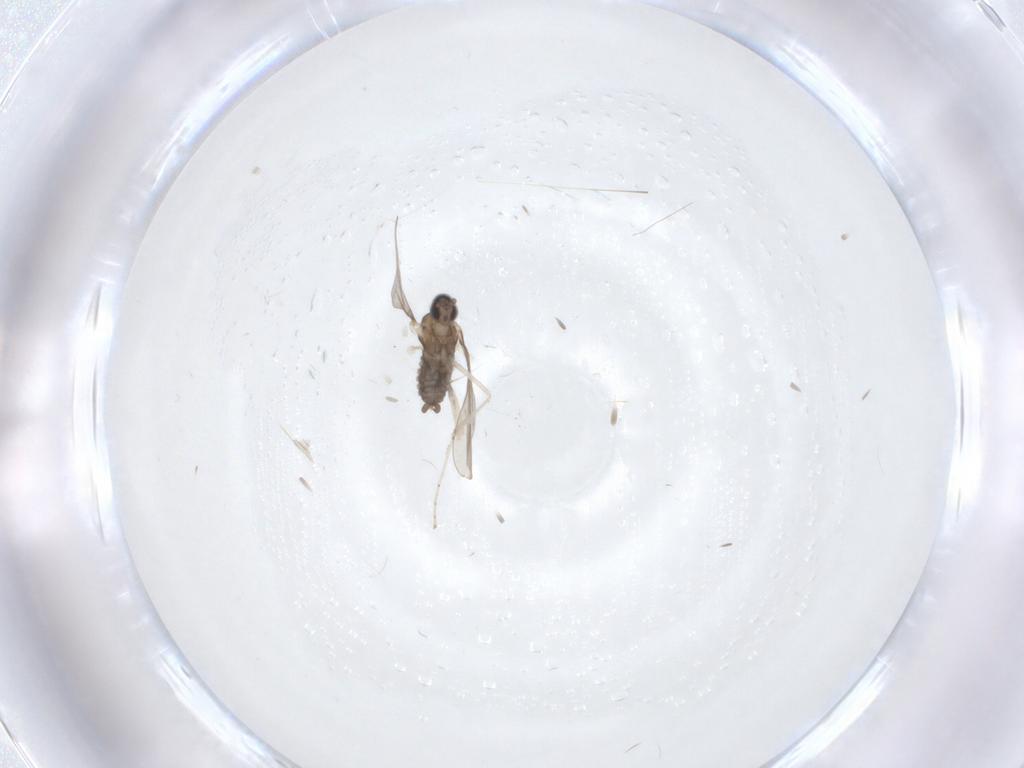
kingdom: Animalia
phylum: Arthropoda
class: Insecta
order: Diptera
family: Cecidomyiidae
